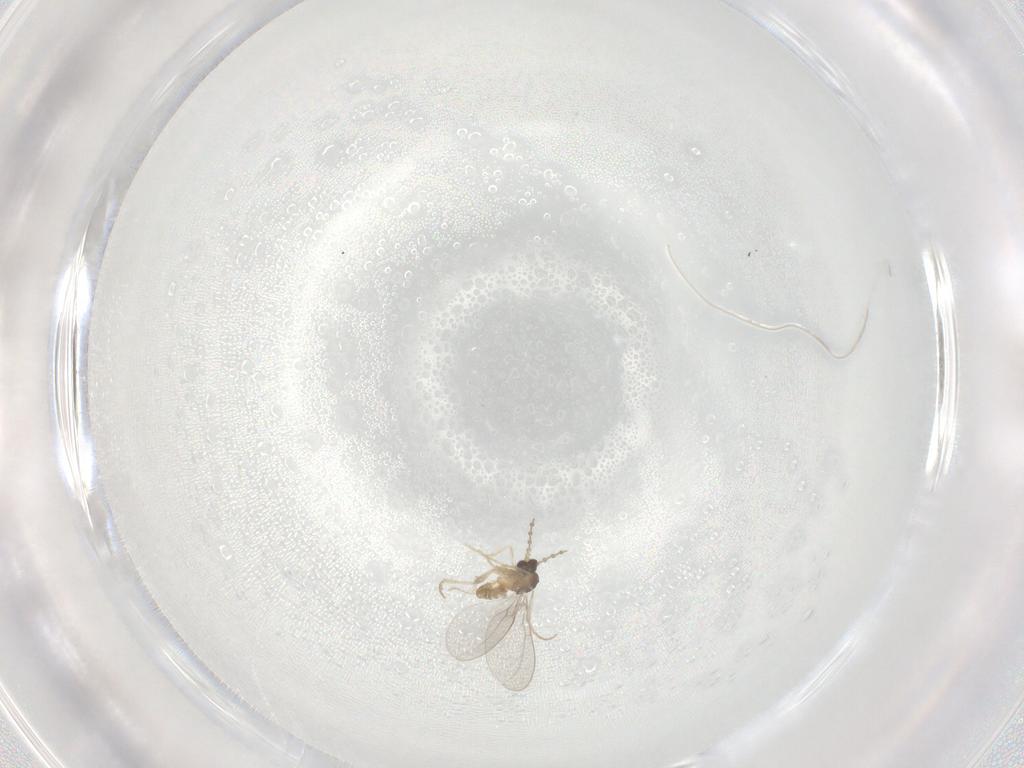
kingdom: Animalia
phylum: Arthropoda
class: Insecta
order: Diptera
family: Cecidomyiidae
